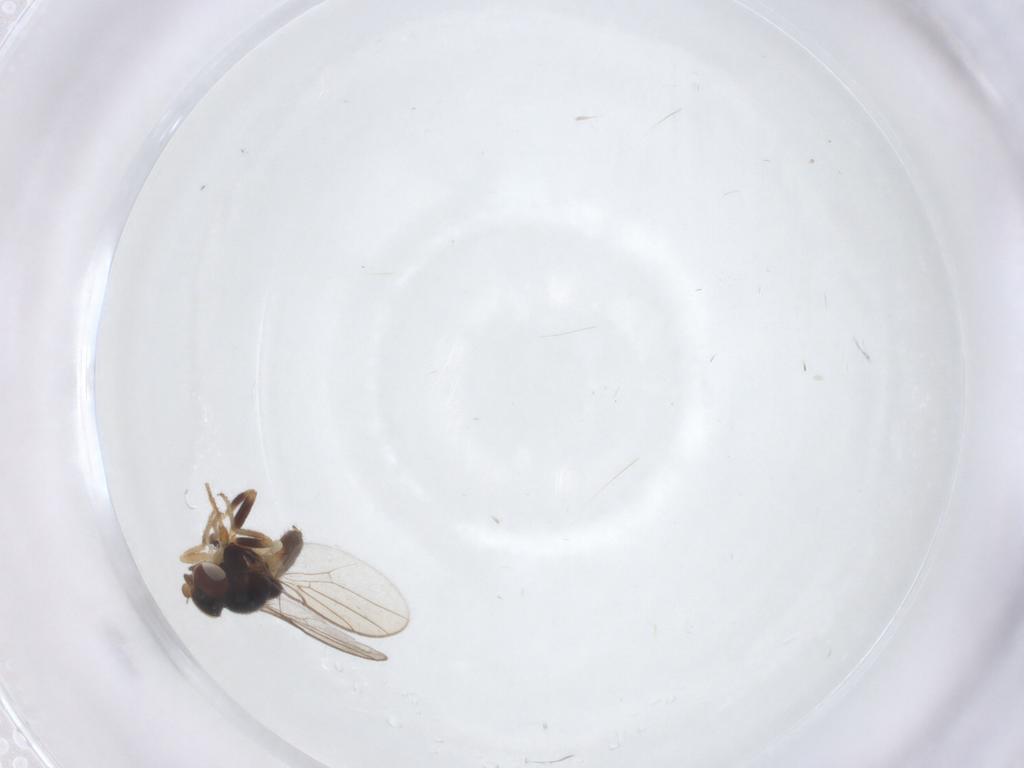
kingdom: Animalia
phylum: Arthropoda
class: Insecta
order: Diptera
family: Chloropidae
